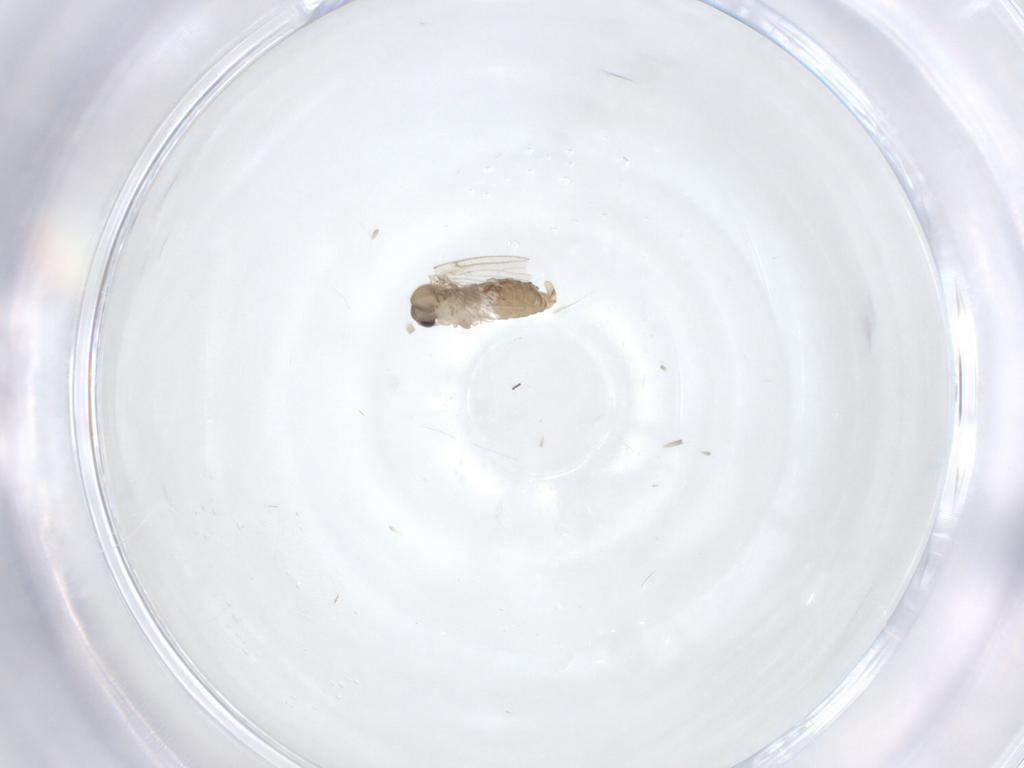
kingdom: Animalia
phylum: Arthropoda
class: Insecta
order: Diptera
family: Ceratopogonidae
